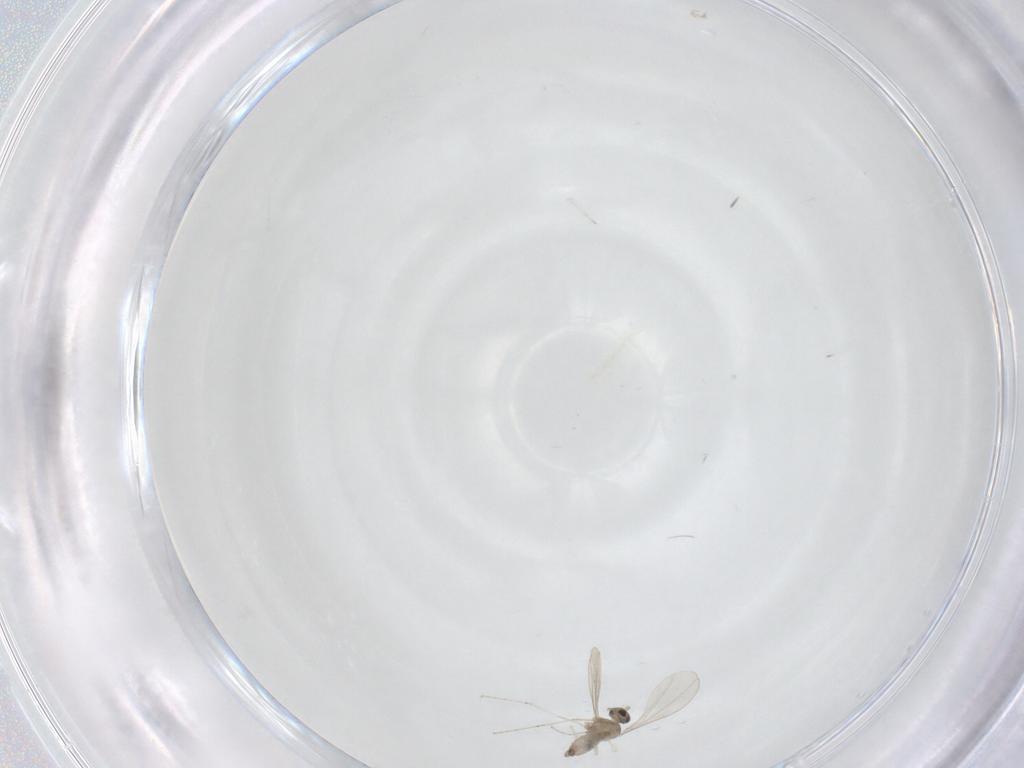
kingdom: Animalia
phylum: Arthropoda
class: Insecta
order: Diptera
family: Cecidomyiidae
